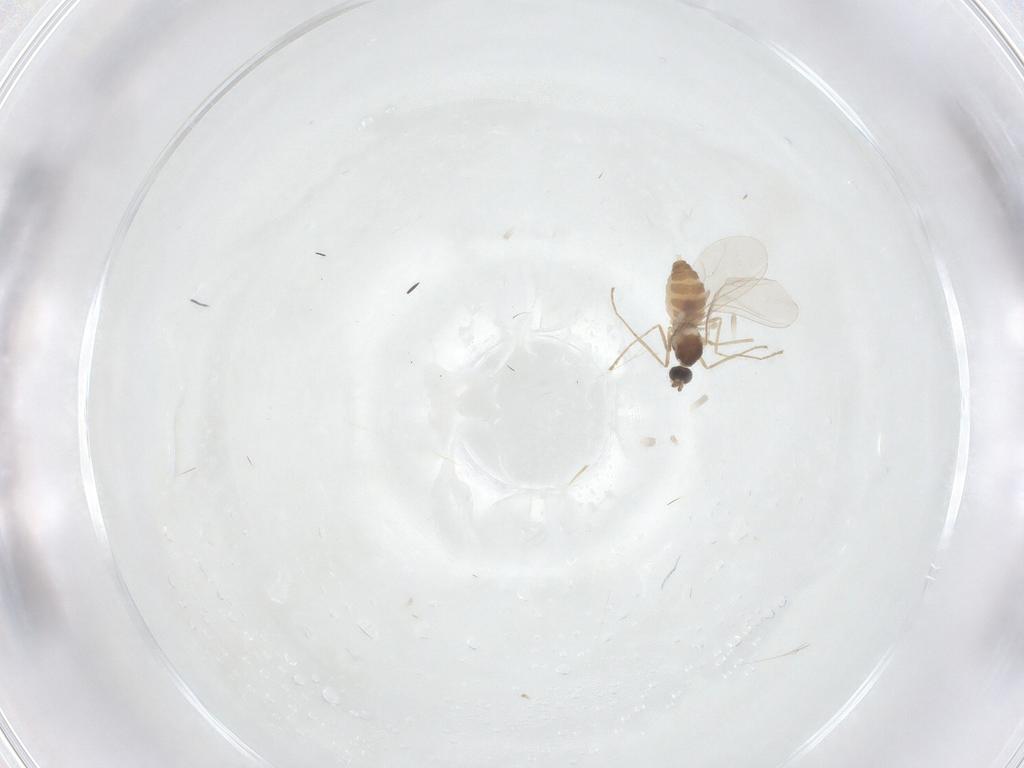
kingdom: Animalia
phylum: Arthropoda
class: Insecta
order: Diptera
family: Cecidomyiidae
